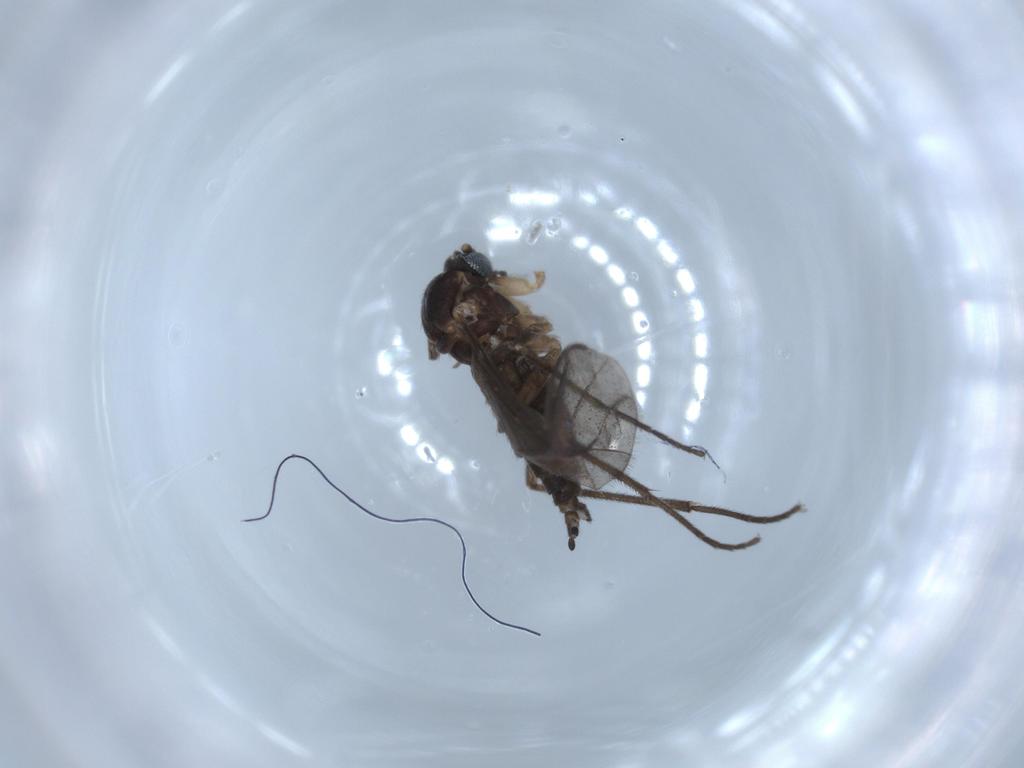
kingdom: Animalia
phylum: Arthropoda
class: Insecta
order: Diptera
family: Sciaridae
